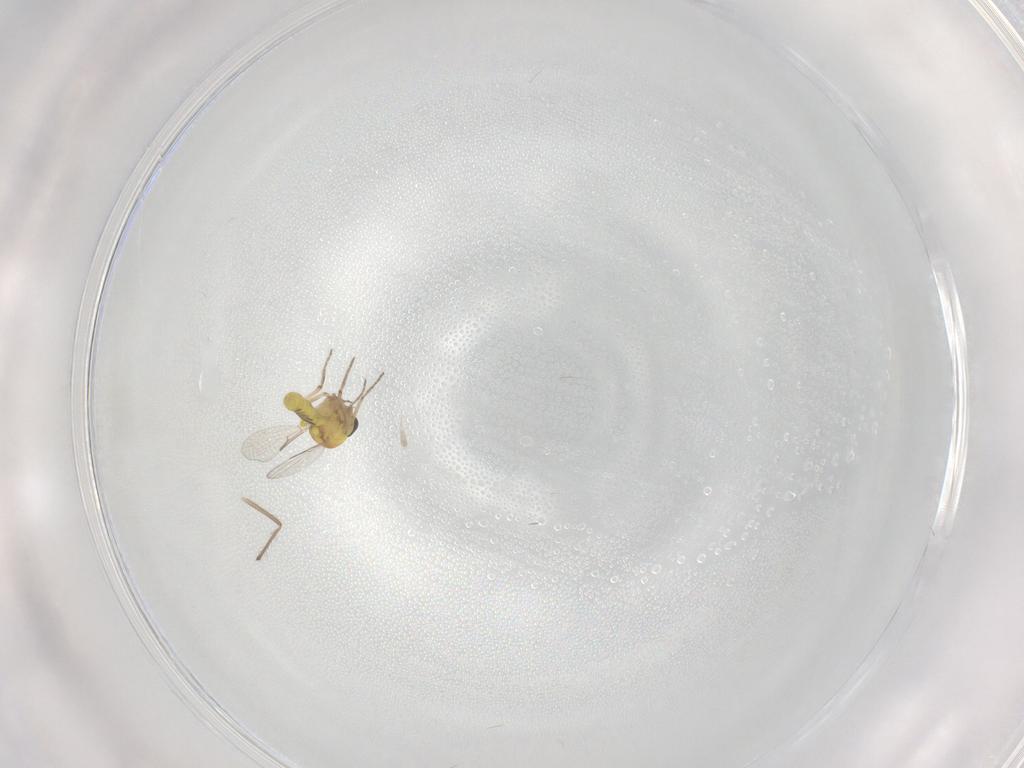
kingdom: Animalia
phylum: Arthropoda
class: Insecta
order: Diptera
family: Ceratopogonidae
